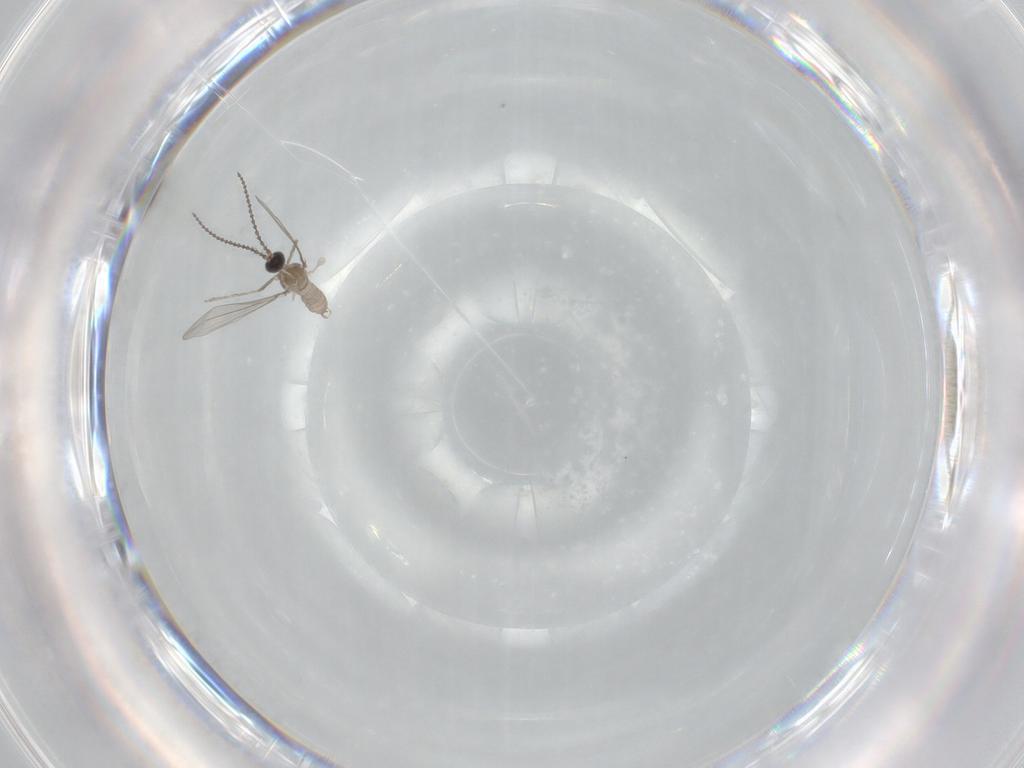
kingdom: Animalia
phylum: Arthropoda
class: Insecta
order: Diptera
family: Cecidomyiidae
